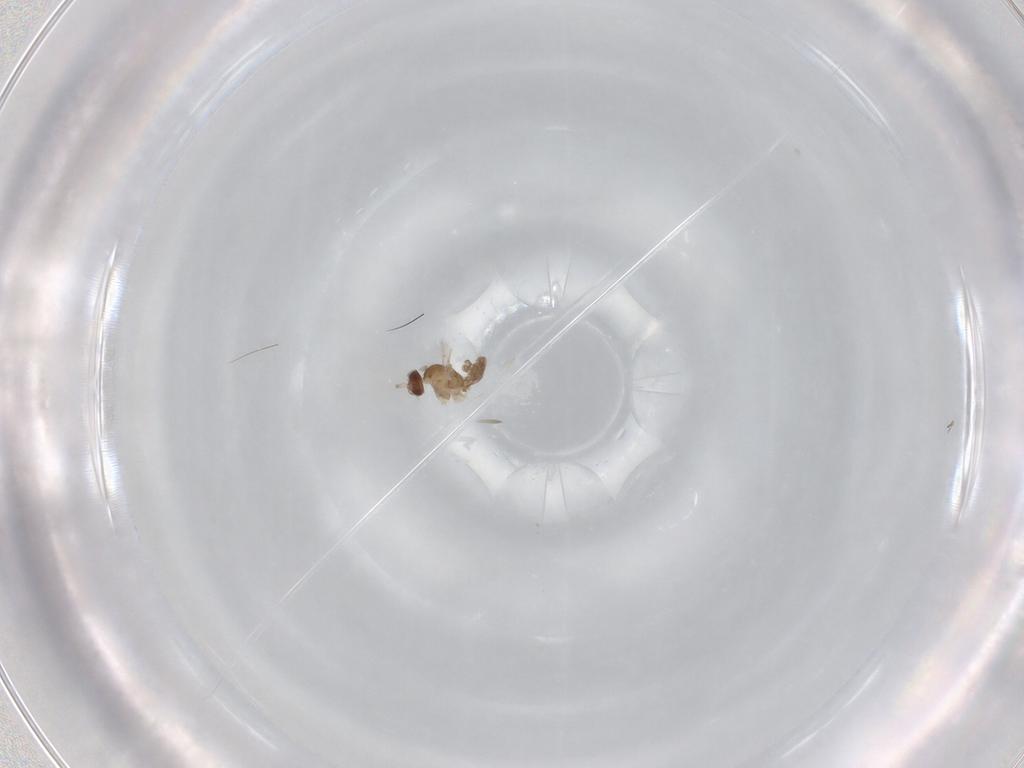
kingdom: Animalia
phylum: Arthropoda
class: Insecta
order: Diptera
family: Cecidomyiidae
